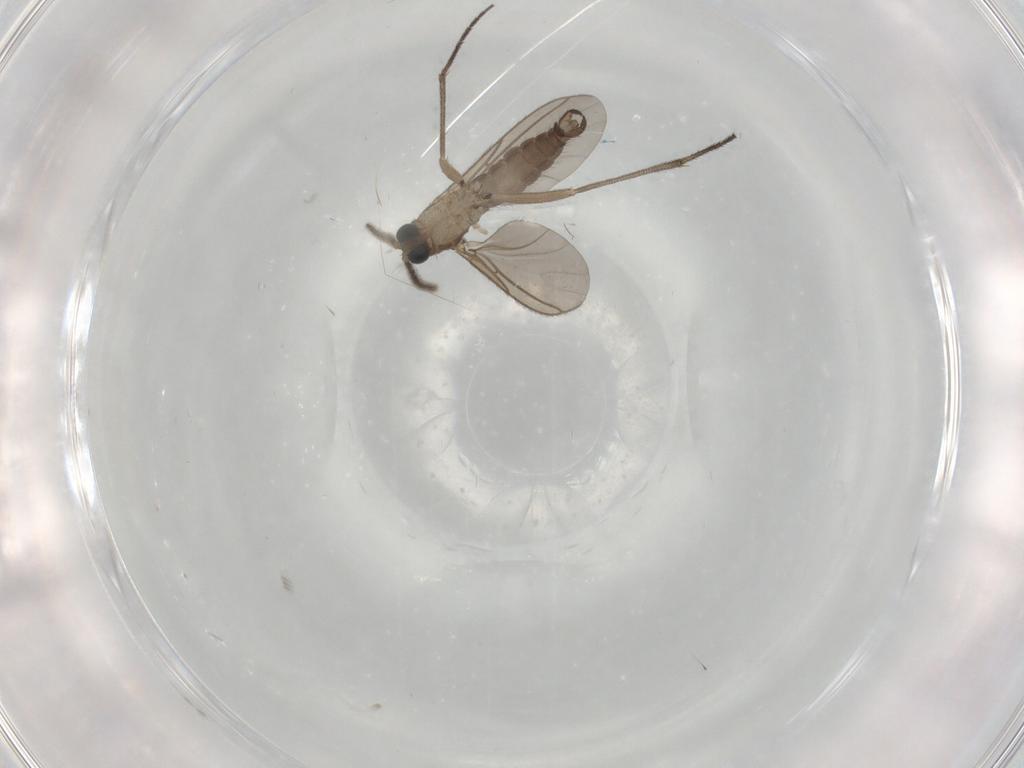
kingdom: Animalia
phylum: Arthropoda
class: Insecta
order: Diptera
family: Sciaridae
